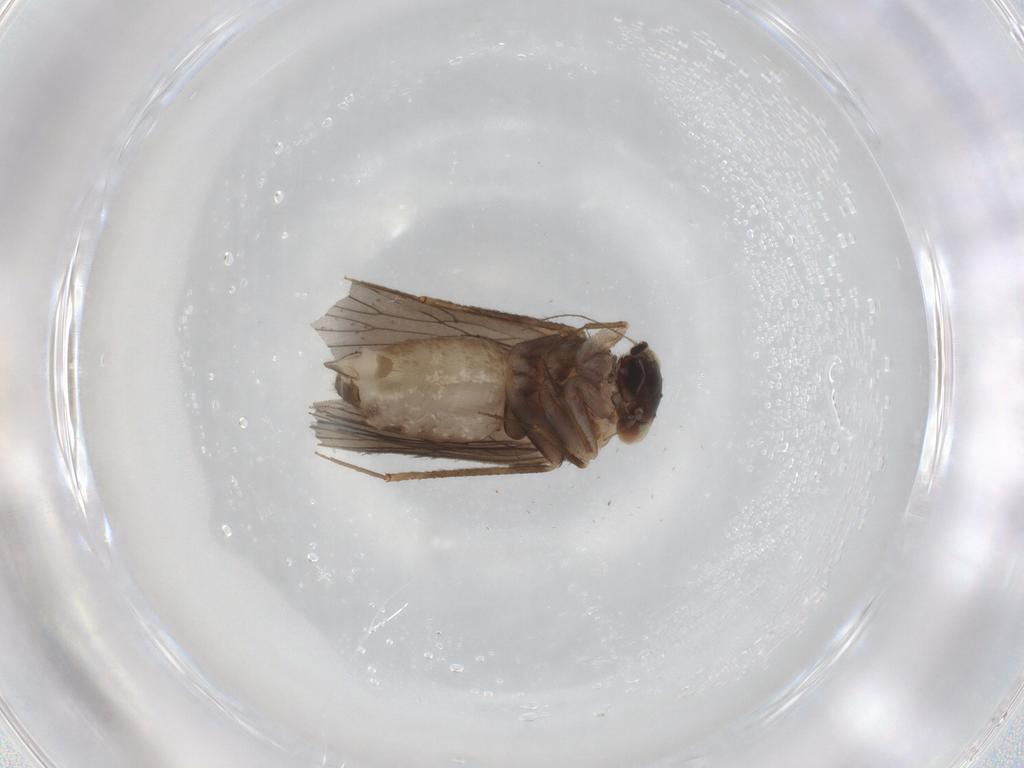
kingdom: Animalia
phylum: Arthropoda
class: Insecta
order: Psocodea
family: Lepidopsocidae
